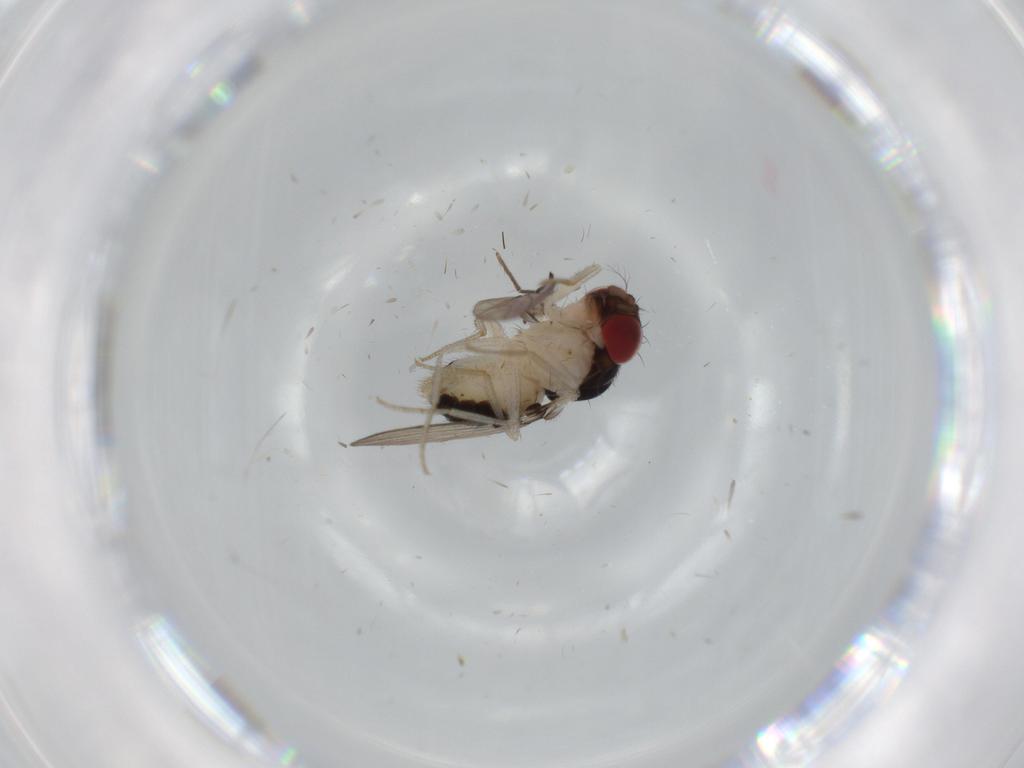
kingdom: Animalia
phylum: Arthropoda
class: Insecta
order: Diptera
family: Drosophilidae
